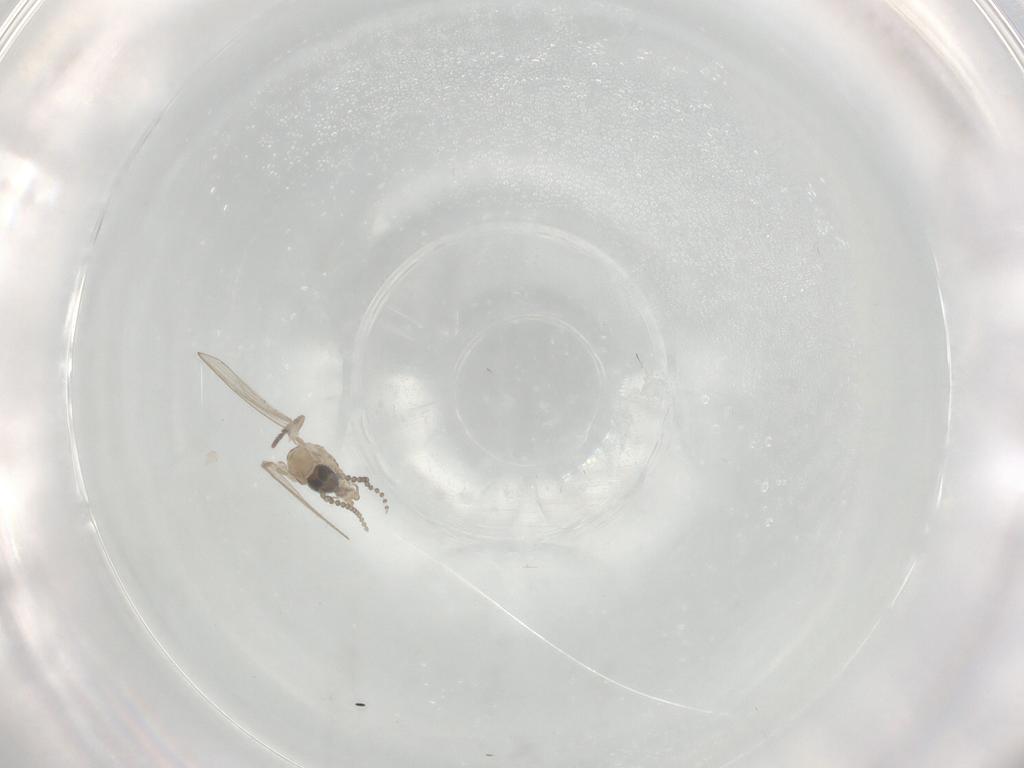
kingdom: Animalia
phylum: Arthropoda
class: Insecta
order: Diptera
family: Psychodidae
